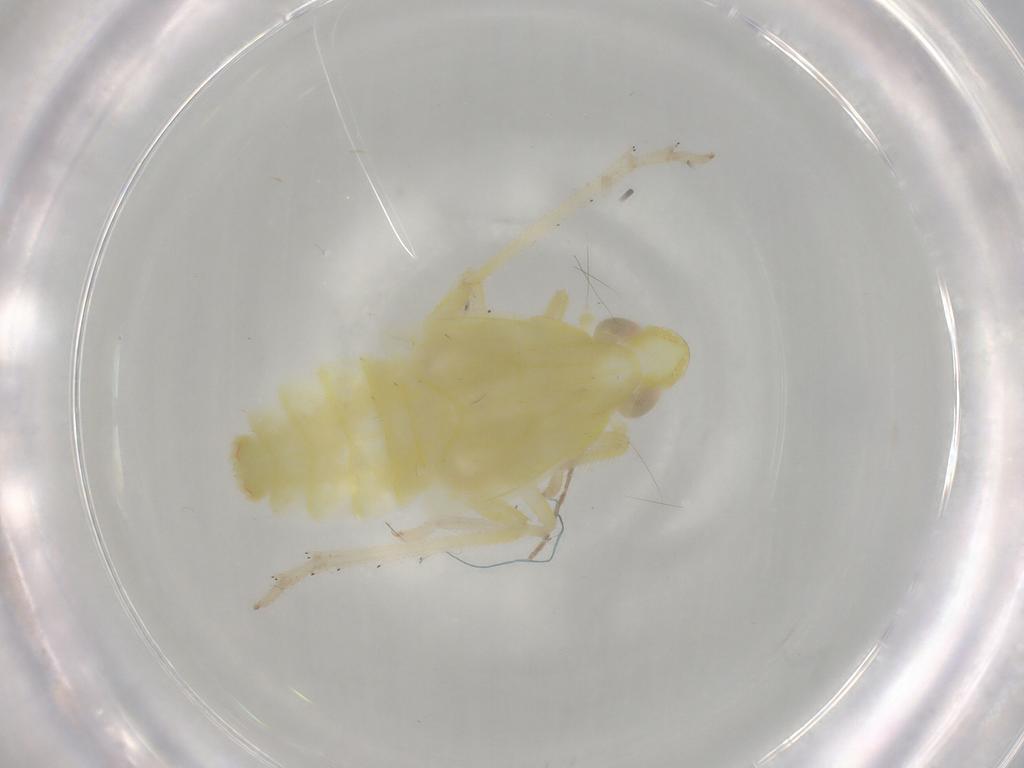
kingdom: Animalia
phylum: Arthropoda
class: Insecta
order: Hemiptera
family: Tropiduchidae
